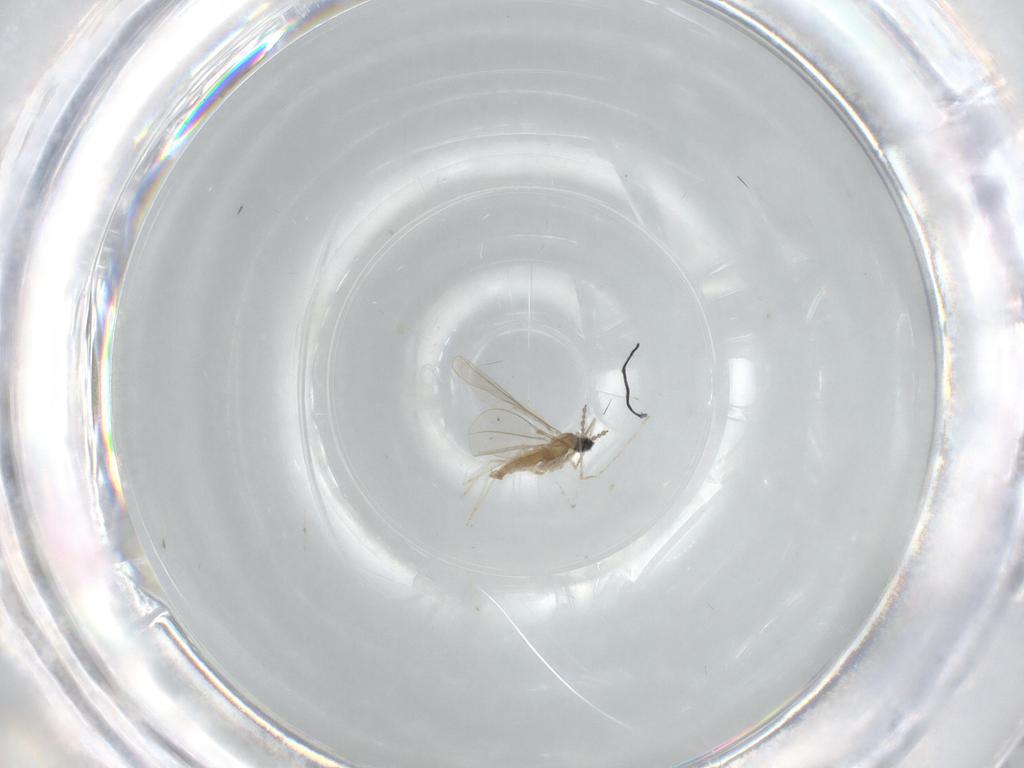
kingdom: Animalia
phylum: Arthropoda
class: Insecta
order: Diptera
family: Cecidomyiidae
